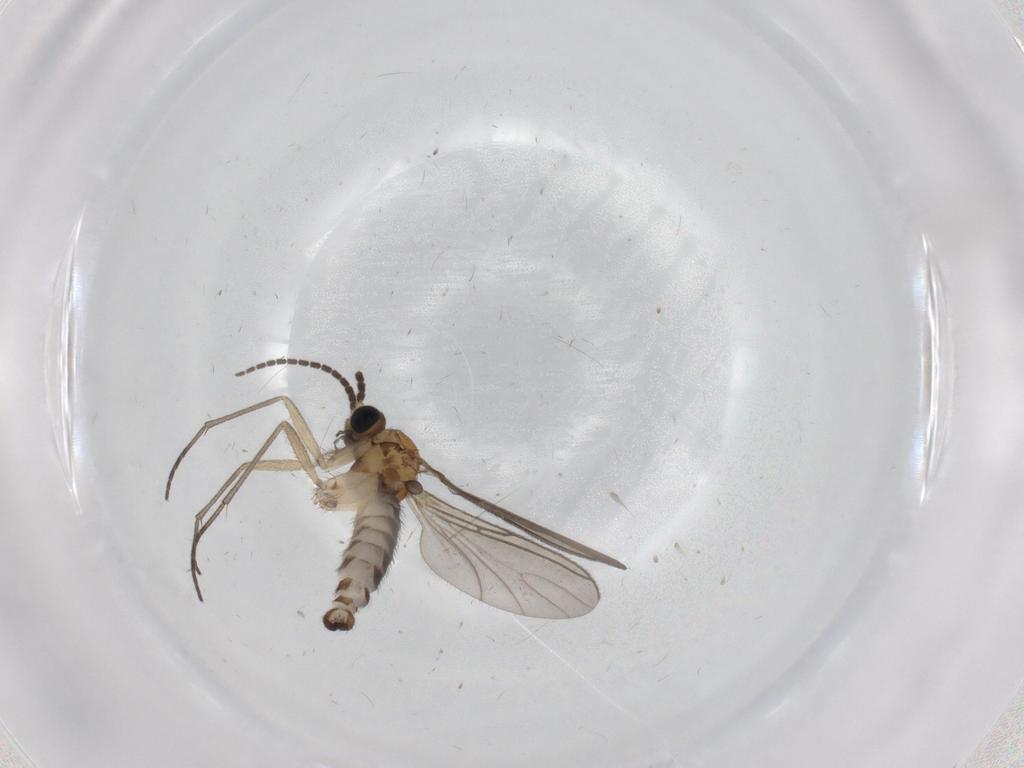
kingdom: Animalia
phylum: Arthropoda
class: Insecta
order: Diptera
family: Sciaridae
